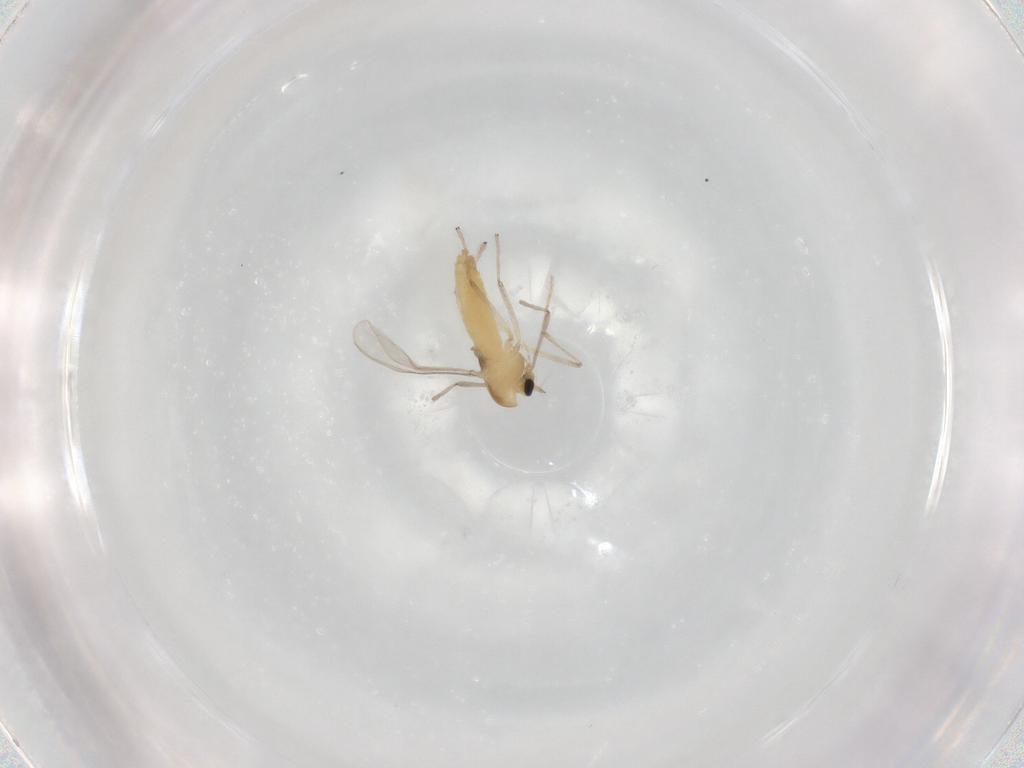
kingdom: Animalia
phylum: Arthropoda
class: Insecta
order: Diptera
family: Chironomidae
